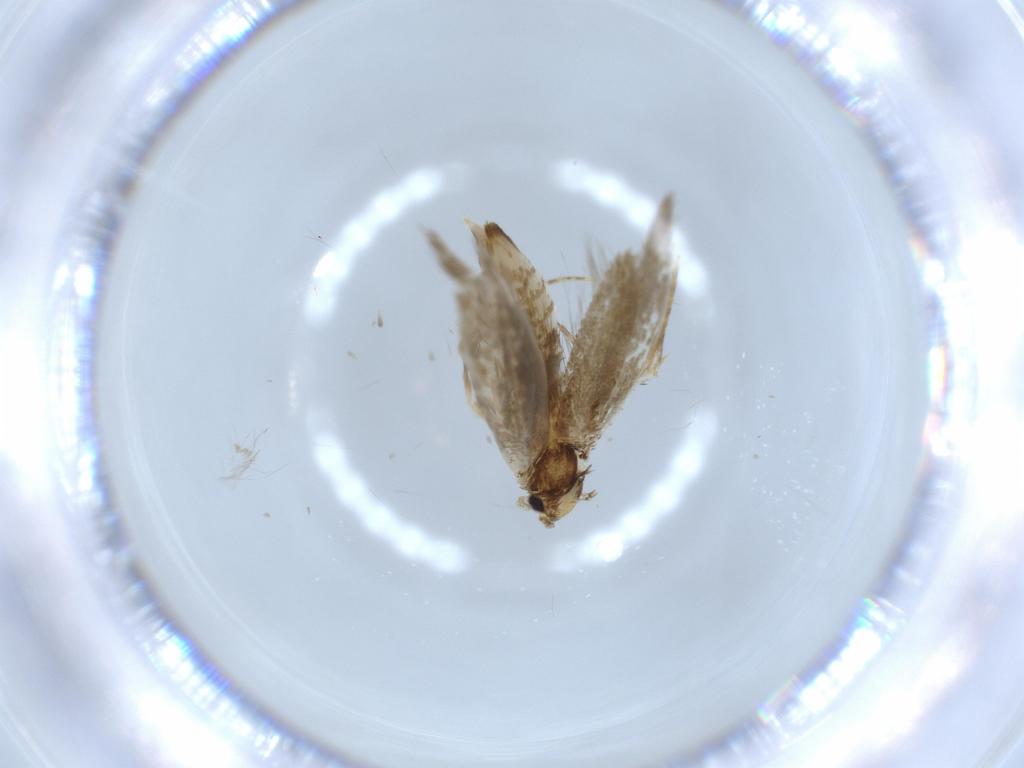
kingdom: Animalia
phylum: Arthropoda
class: Insecta
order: Lepidoptera
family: Tineidae
